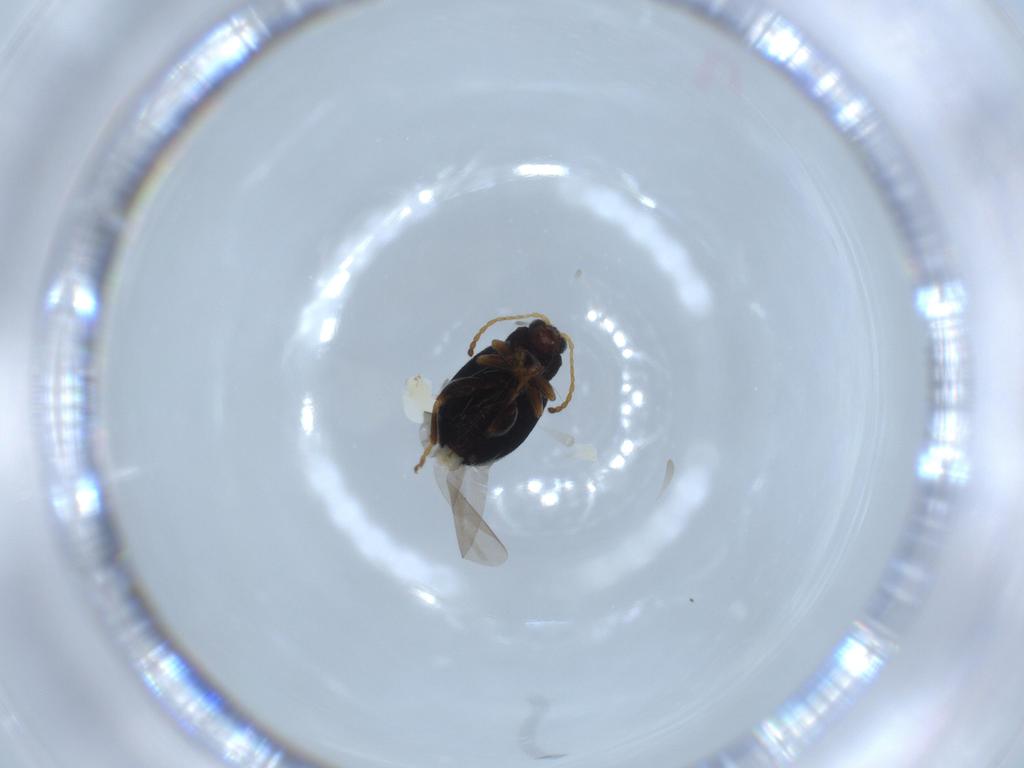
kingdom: Animalia
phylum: Arthropoda
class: Insecta
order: Coleoptera
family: Chrysomelidae
